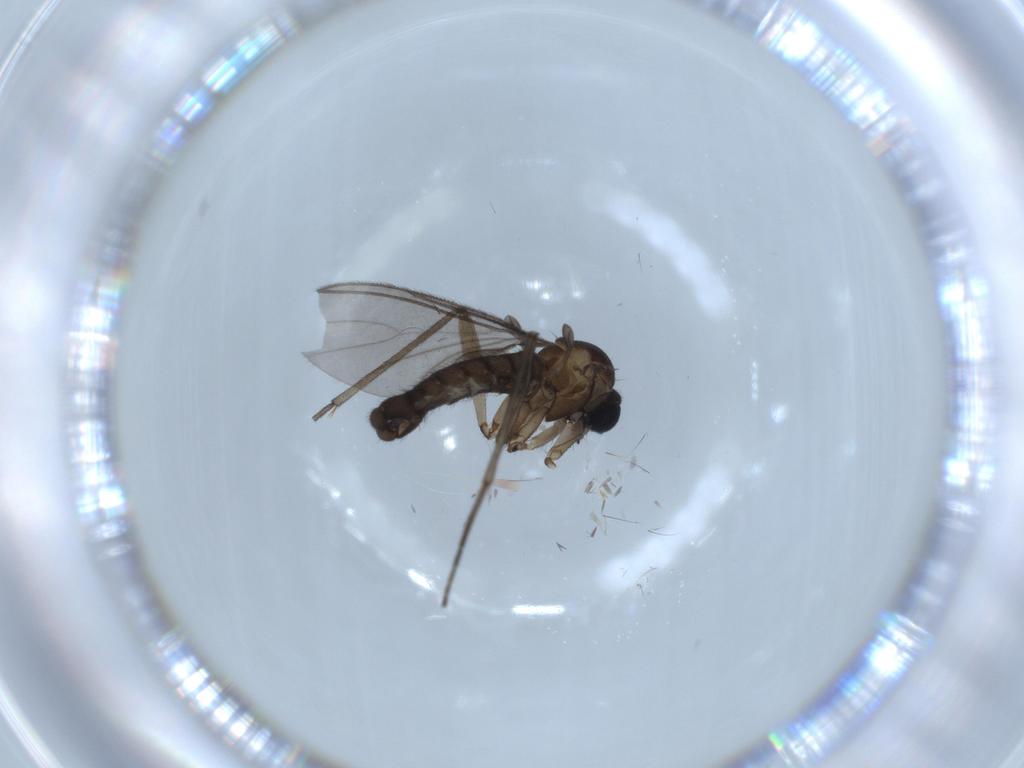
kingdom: Animalia
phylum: Arthropoda
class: Insecta
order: Diptera
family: Sciaridae
